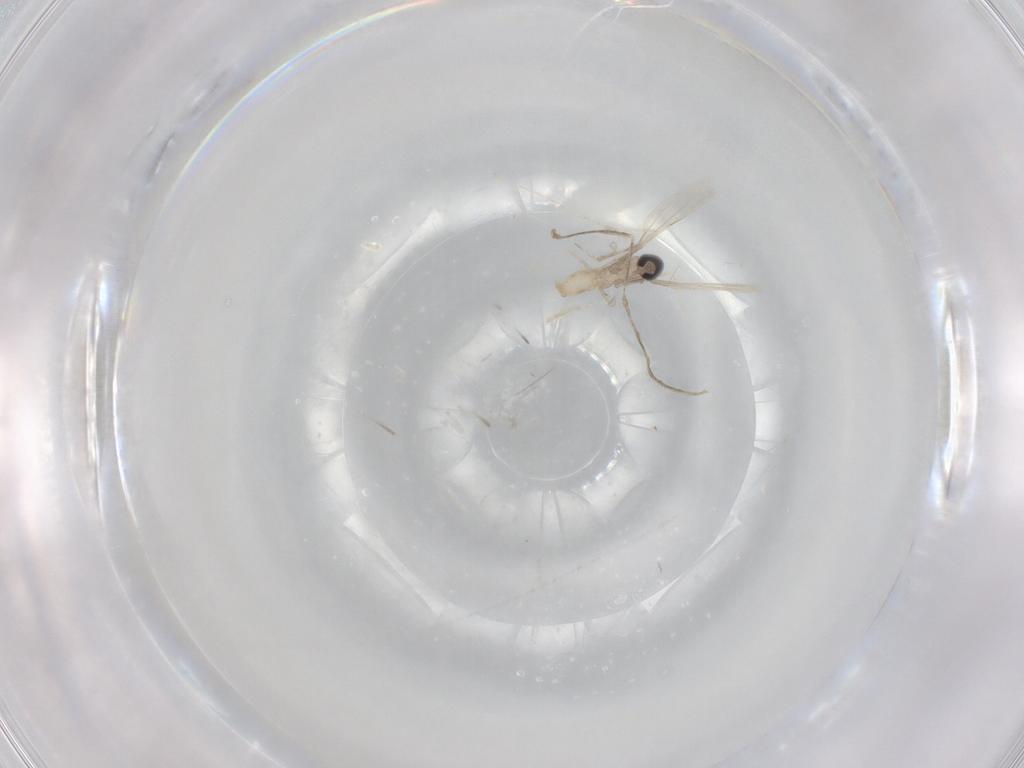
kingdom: Animalia
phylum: Arthropoda
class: Insecta
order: Diptera
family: Cecidomyiidae
